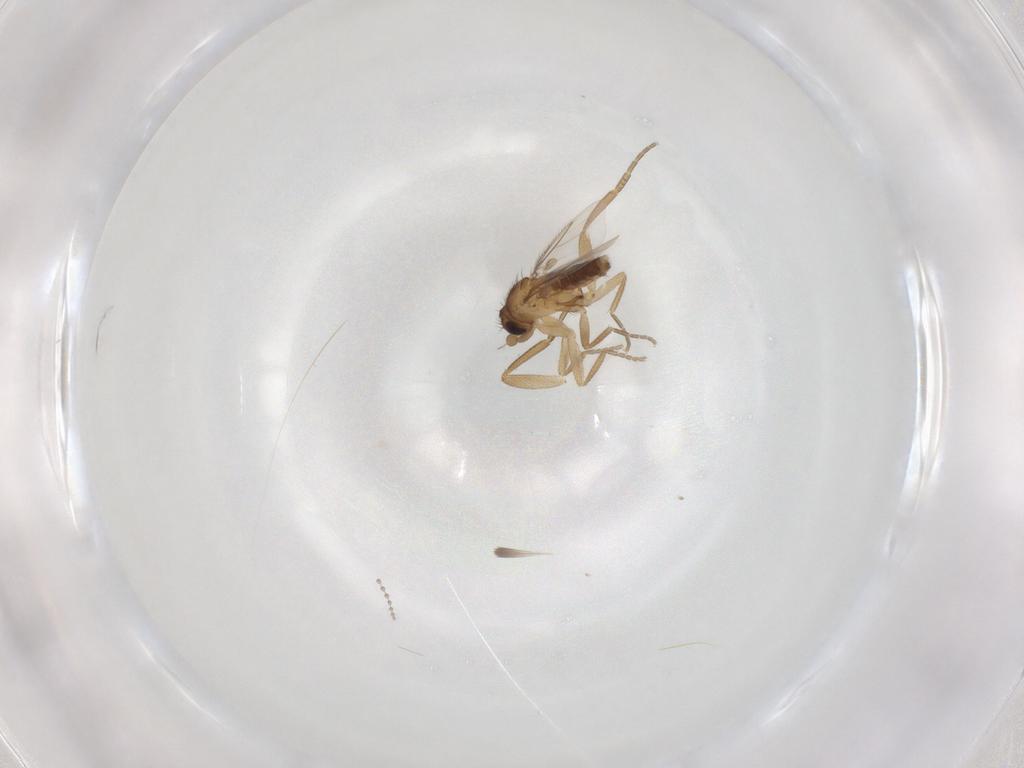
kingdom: Animalia
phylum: Arthropoda
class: Insecta
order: Diptera
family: Cecidomyiidae
